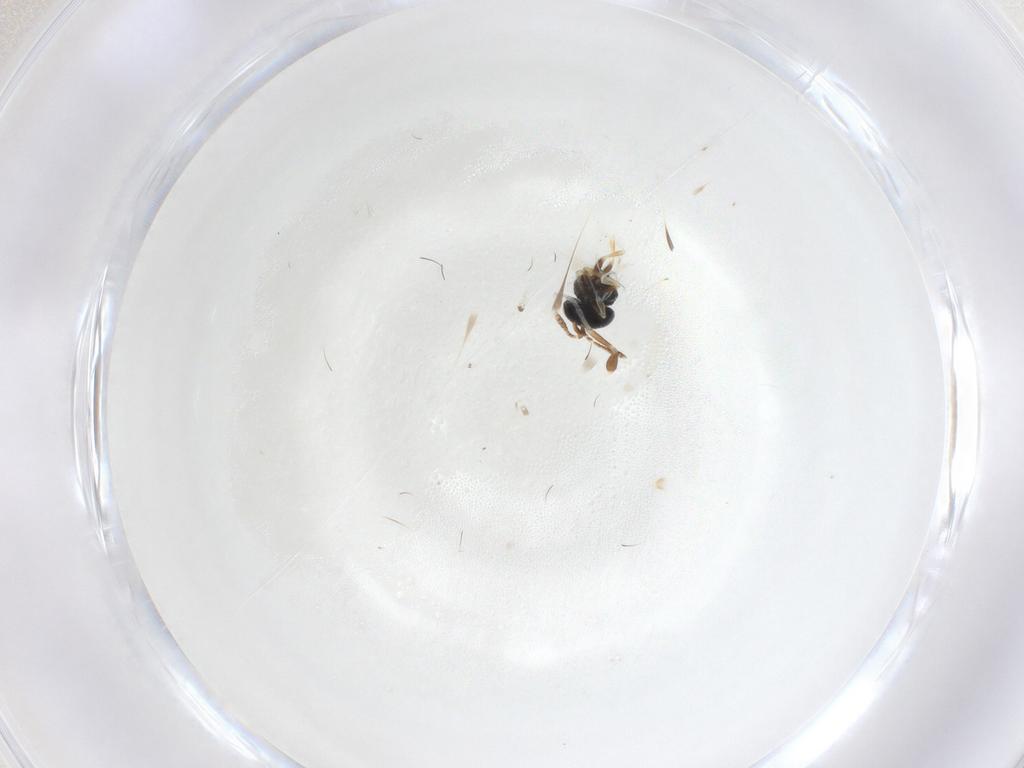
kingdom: Animalia
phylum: Arthropoda
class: Insecta
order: Hymenoptera
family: Scelionidae
